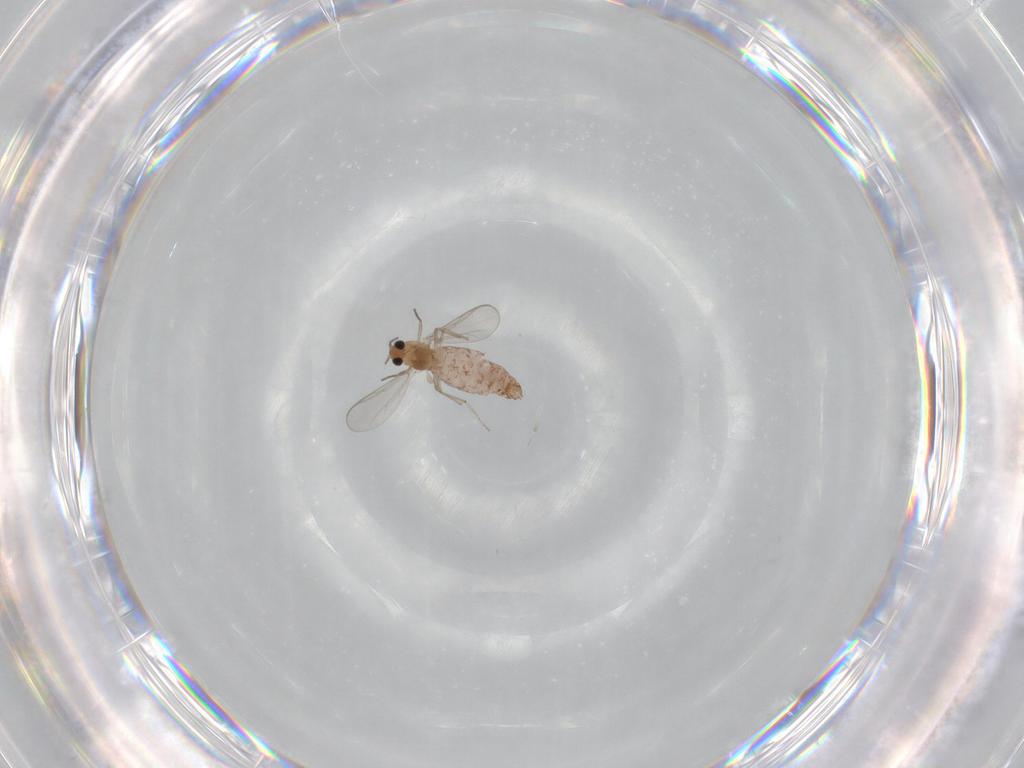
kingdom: Animalia
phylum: Arthropoda
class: Insecta
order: Diptera
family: Chironomidae
